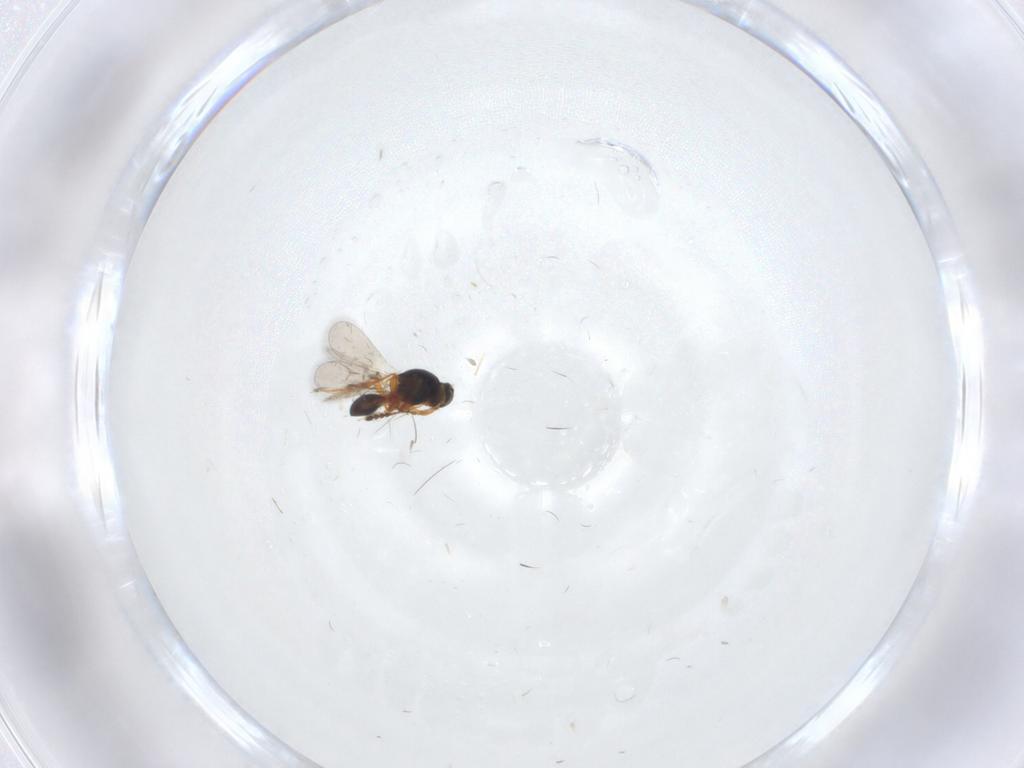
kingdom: Animalia
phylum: Arthropoda
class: Insecta
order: Hymenoptera
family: Platygastridae
